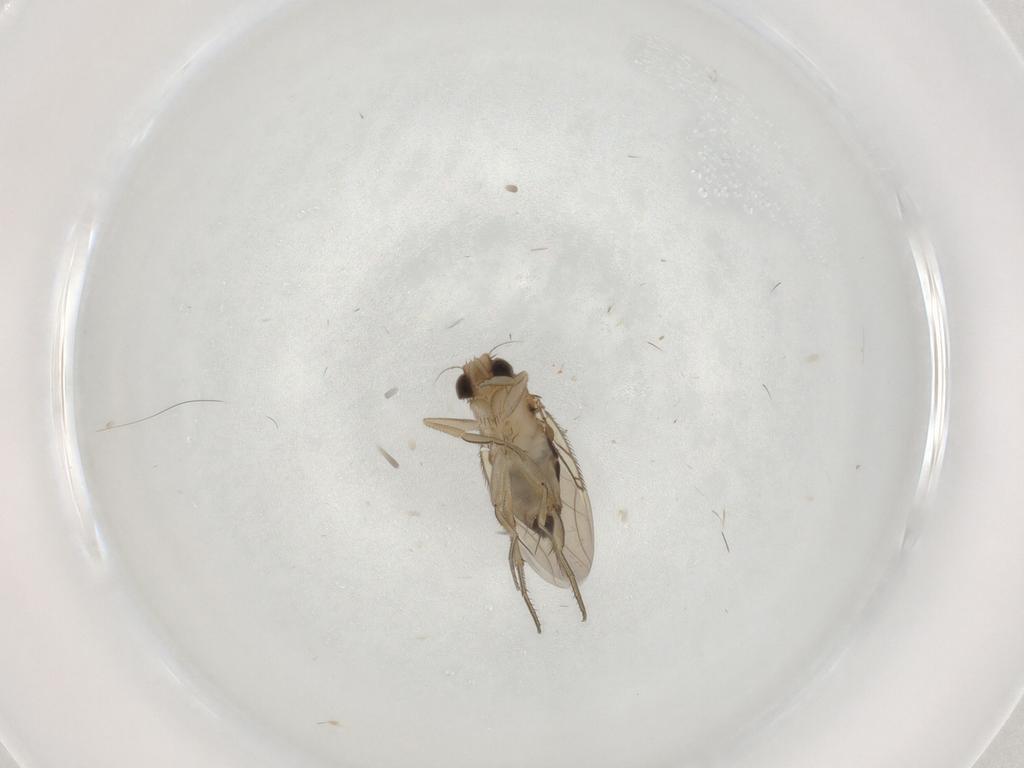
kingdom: Animalia
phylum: Arthropoda
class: Insecta
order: Diptera
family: Phoridae
